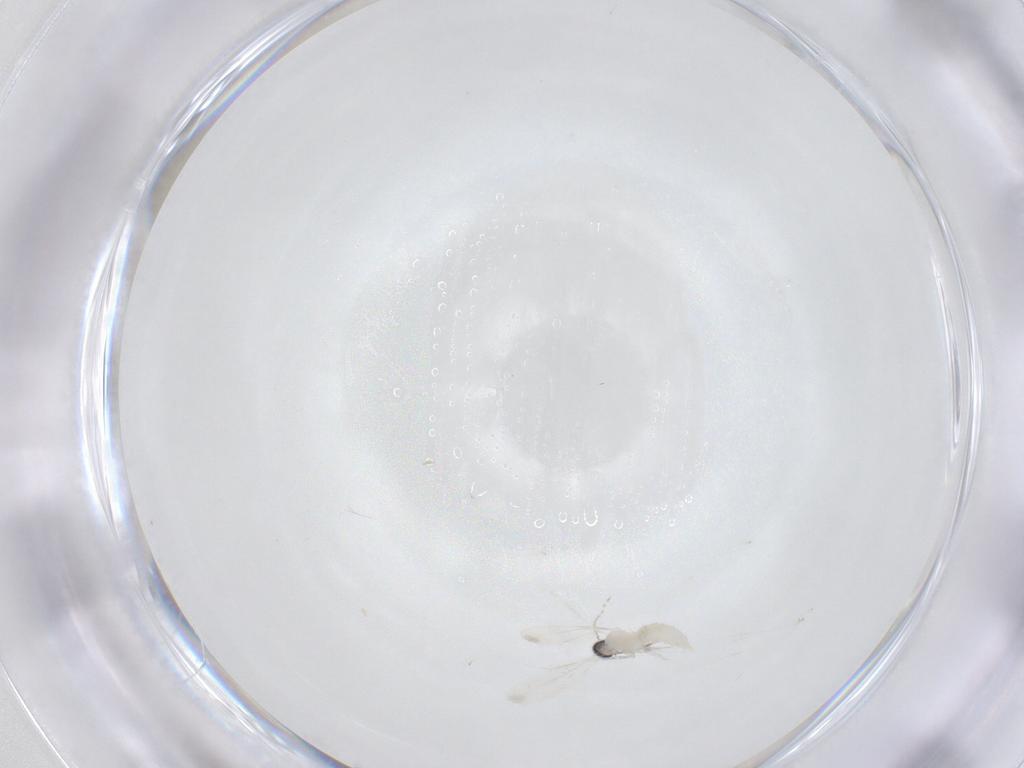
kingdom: Animalia
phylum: Arthropoda
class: Insecta
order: Diptera
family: Cecidomyiidae
